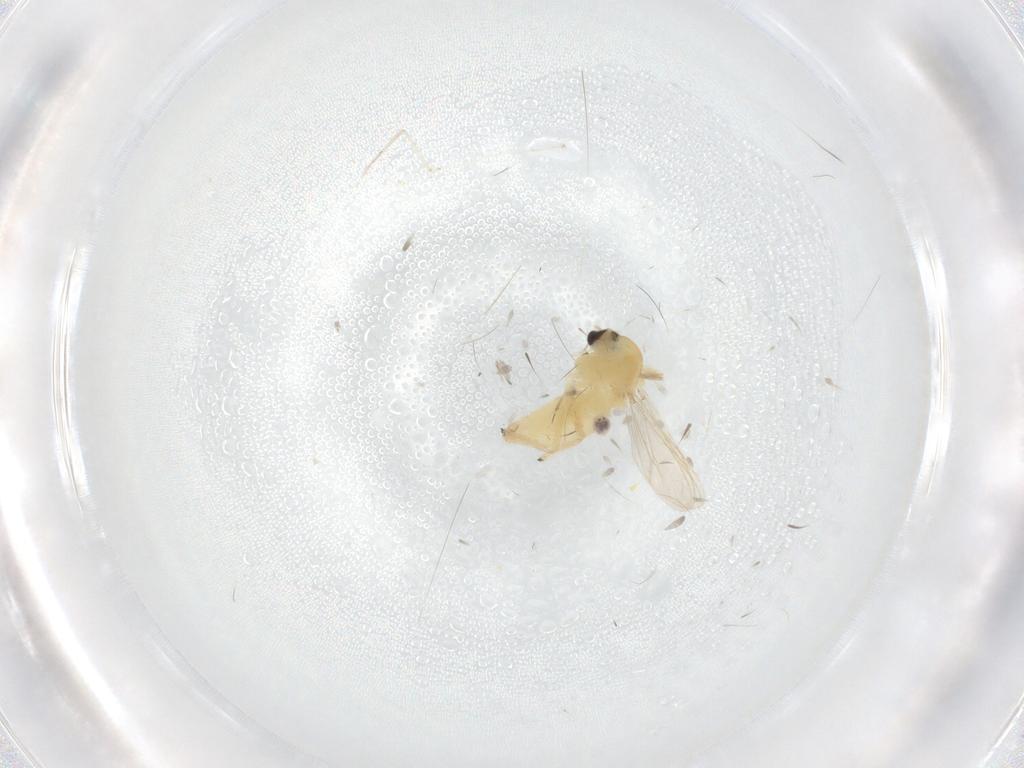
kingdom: Animalia
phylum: Arthropoda
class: Insecta
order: Diptera
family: Chironomidae
